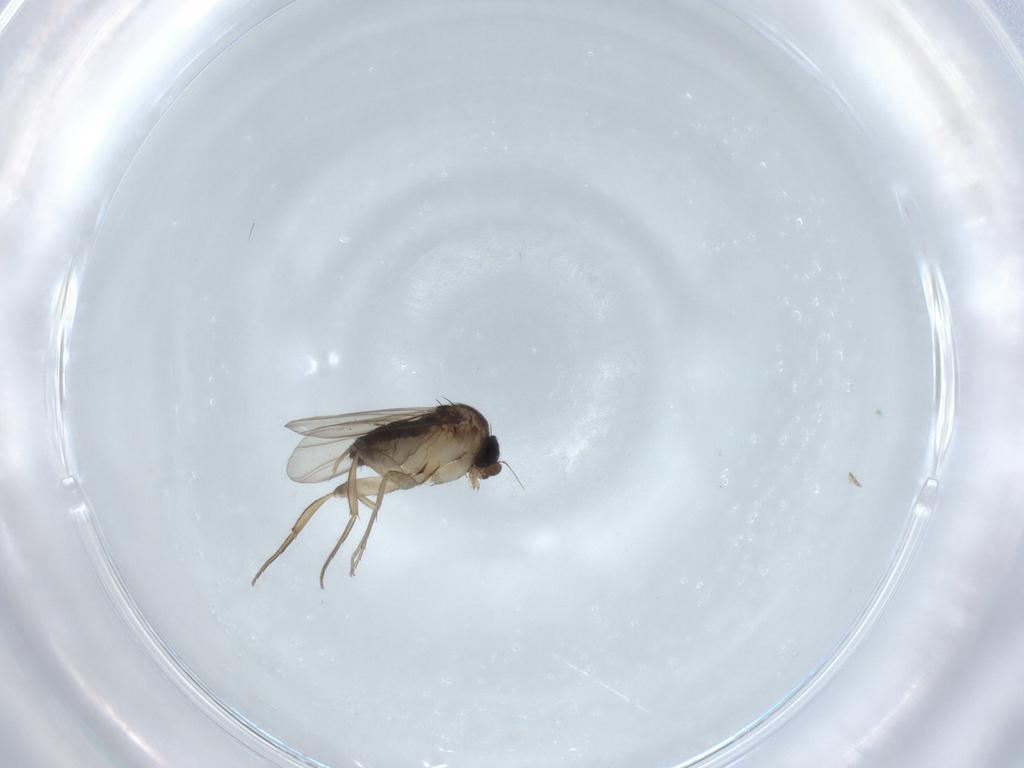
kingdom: Animalia
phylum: Arthropoda
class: Insecta
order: Diptera
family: Phoridae
